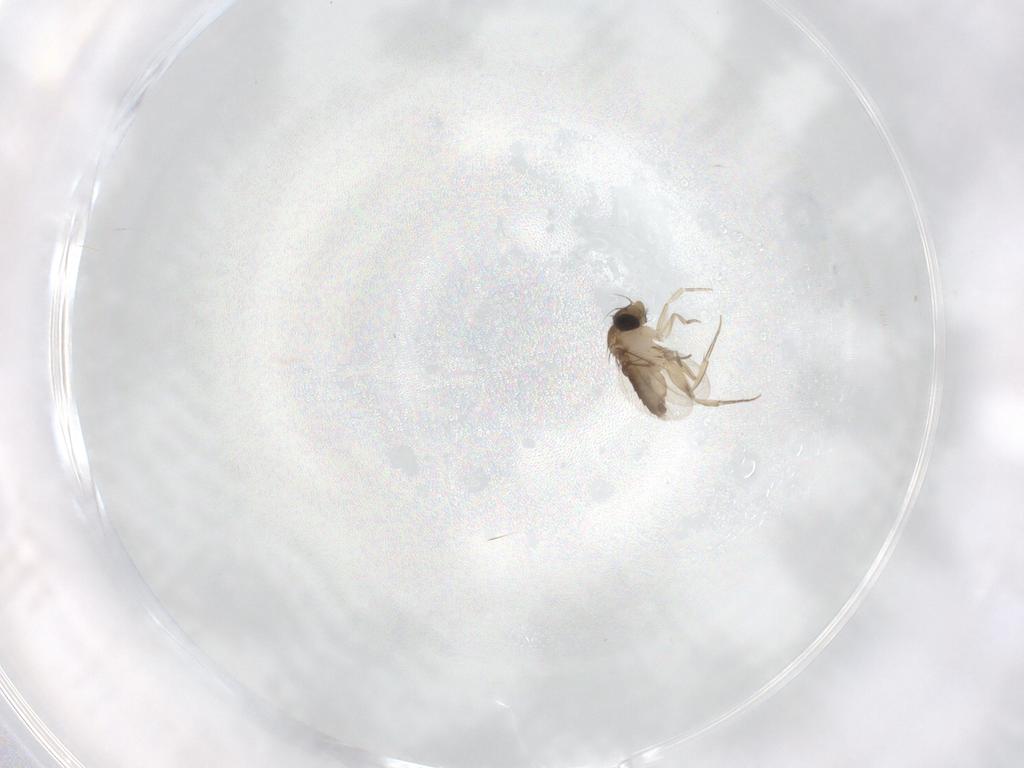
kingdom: Animalia
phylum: Arthropoda
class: Insecta
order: Diptera
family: Phoridae
